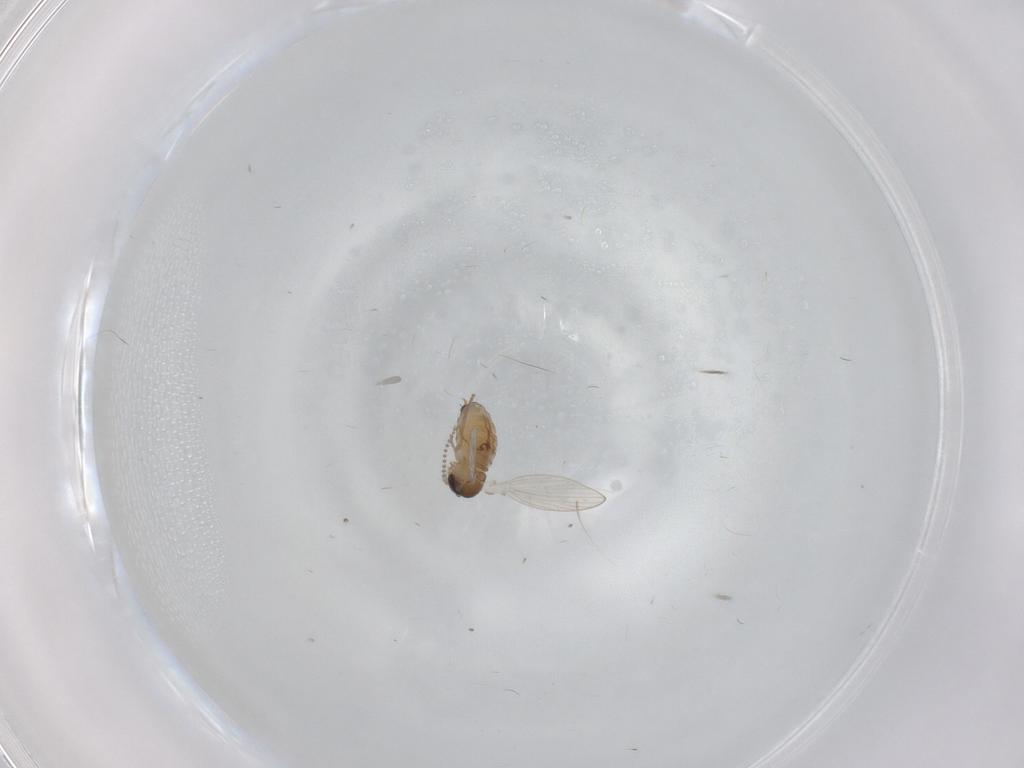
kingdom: Animalia
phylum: Arthropoda
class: Insecta
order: Diptera
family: Psychodidae
